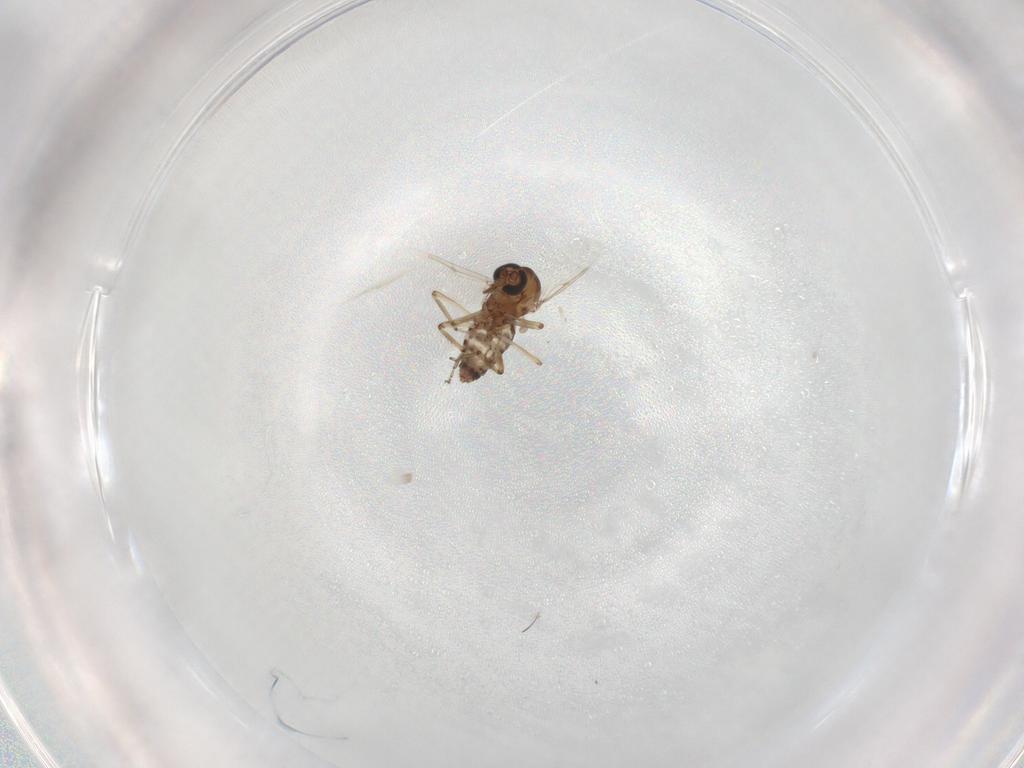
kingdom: Animalia
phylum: Arthropoda
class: Insecta
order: Diptera
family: Ceratopogonidae
